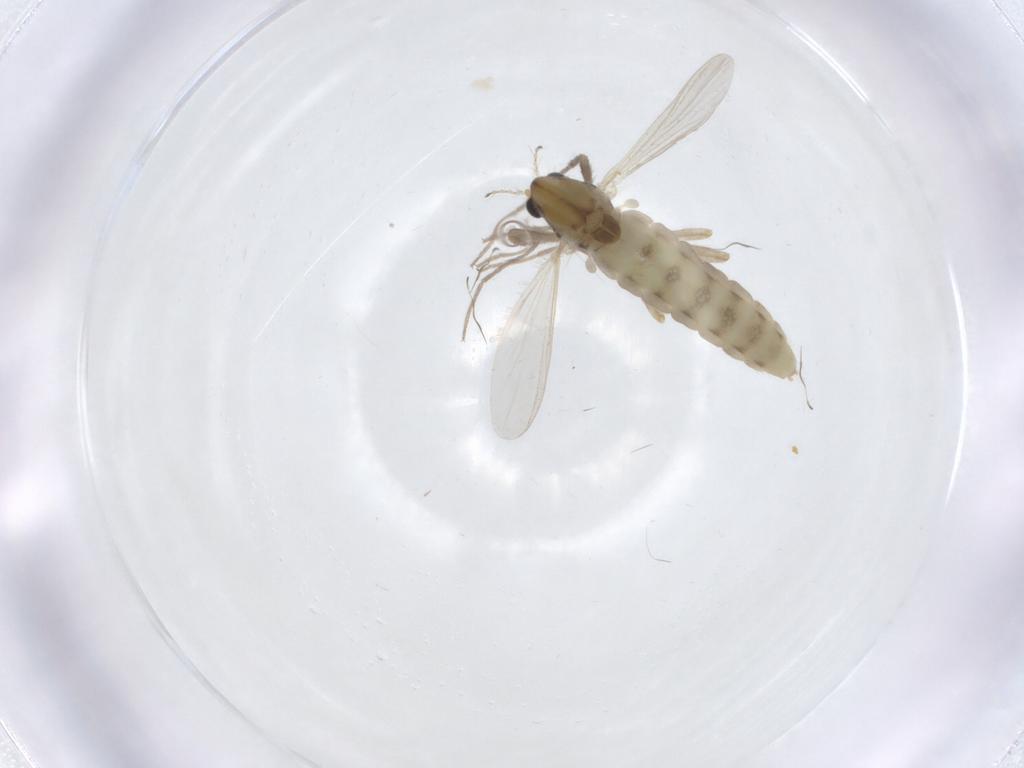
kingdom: Animalia
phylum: Arthropoda
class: Insecta
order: Diptera
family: Chironomidae
